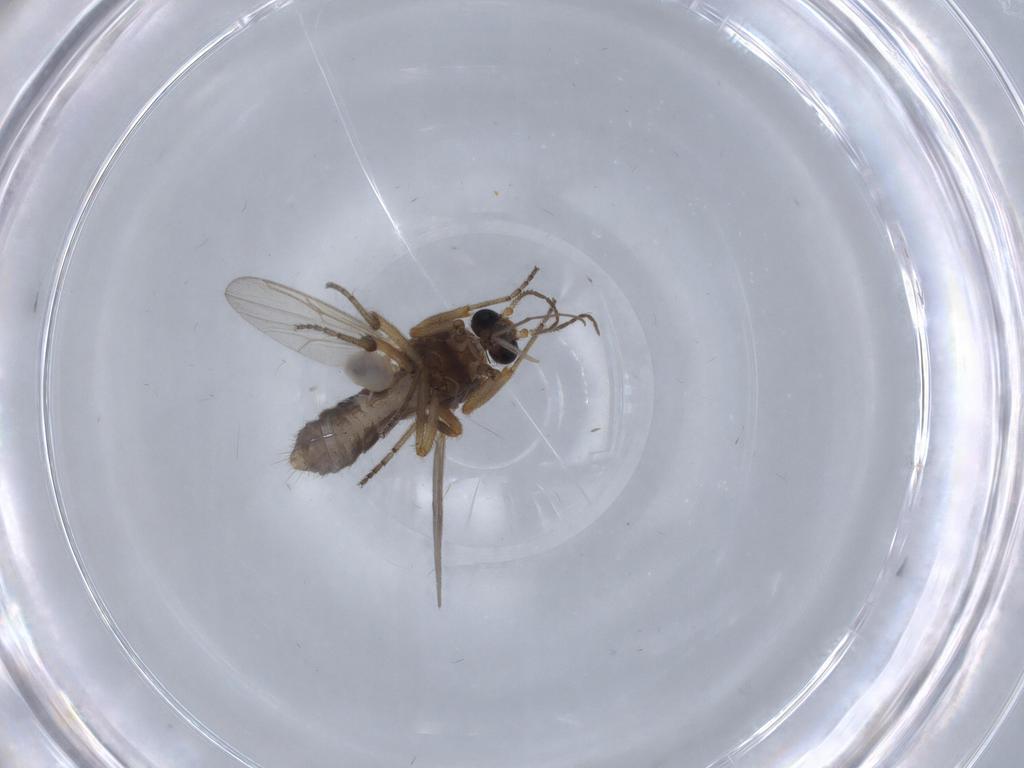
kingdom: Animalia
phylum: Arthropoda
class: Insecta
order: Diptera
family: Ceratopogonidae
